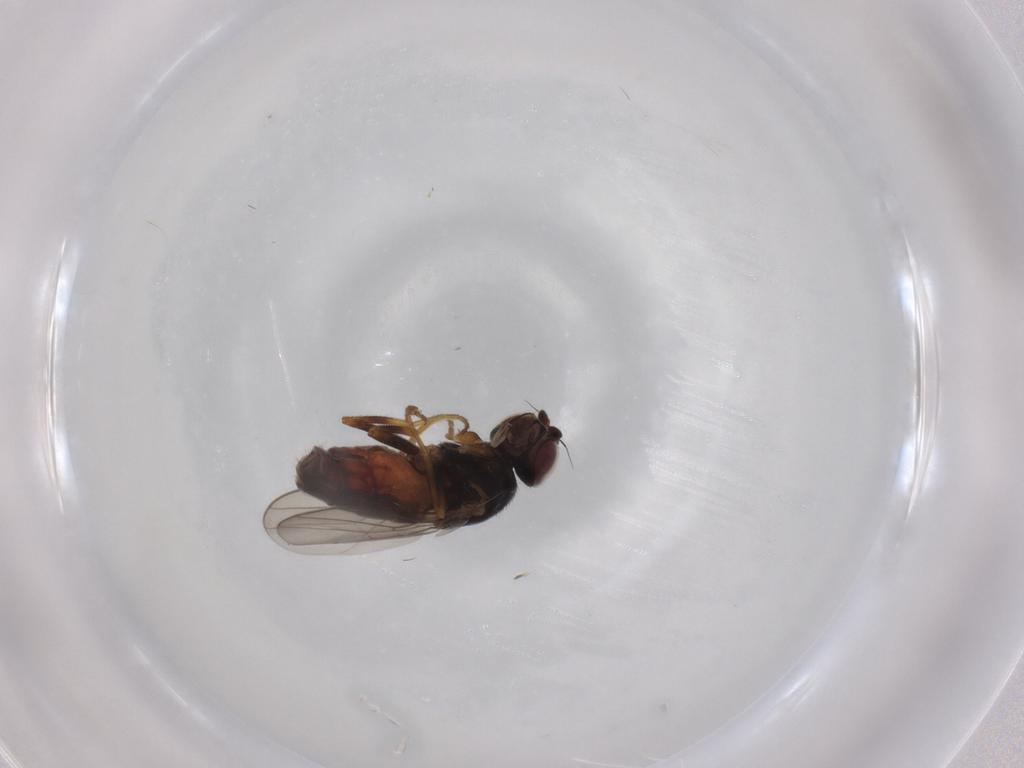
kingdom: Animalia
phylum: Arthropoda
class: Insecta
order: Diptera
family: Chloropidae
